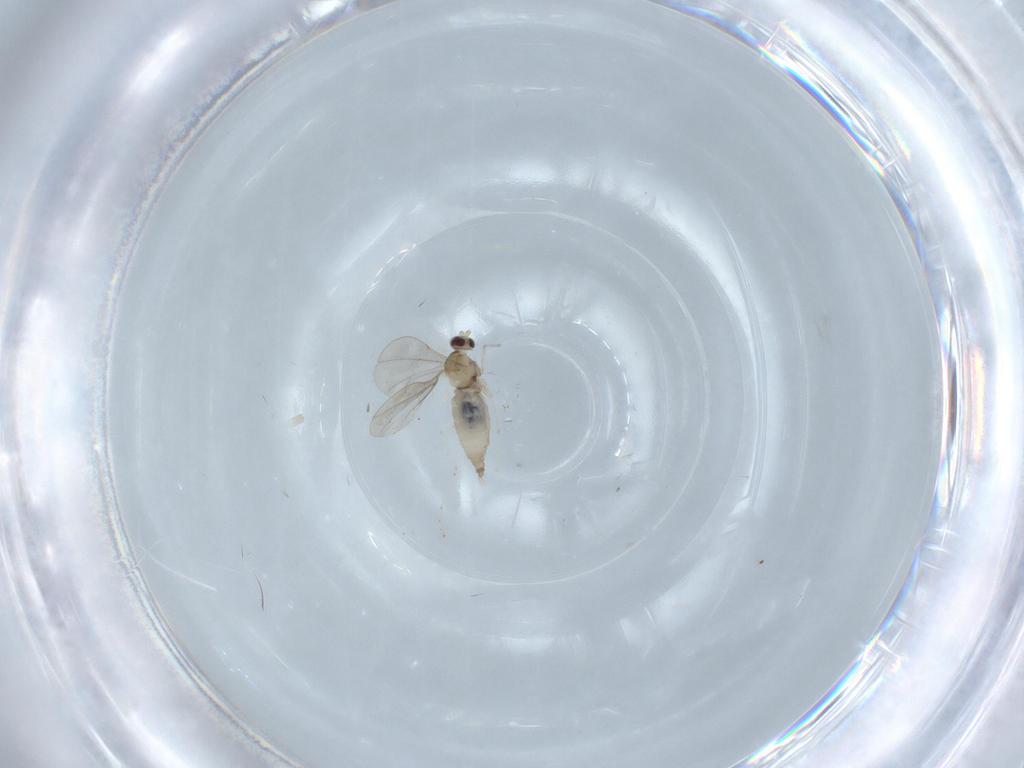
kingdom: Animalia
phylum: Arthropoda
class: Insecta
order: Diptera
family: Cecidomyiidae
